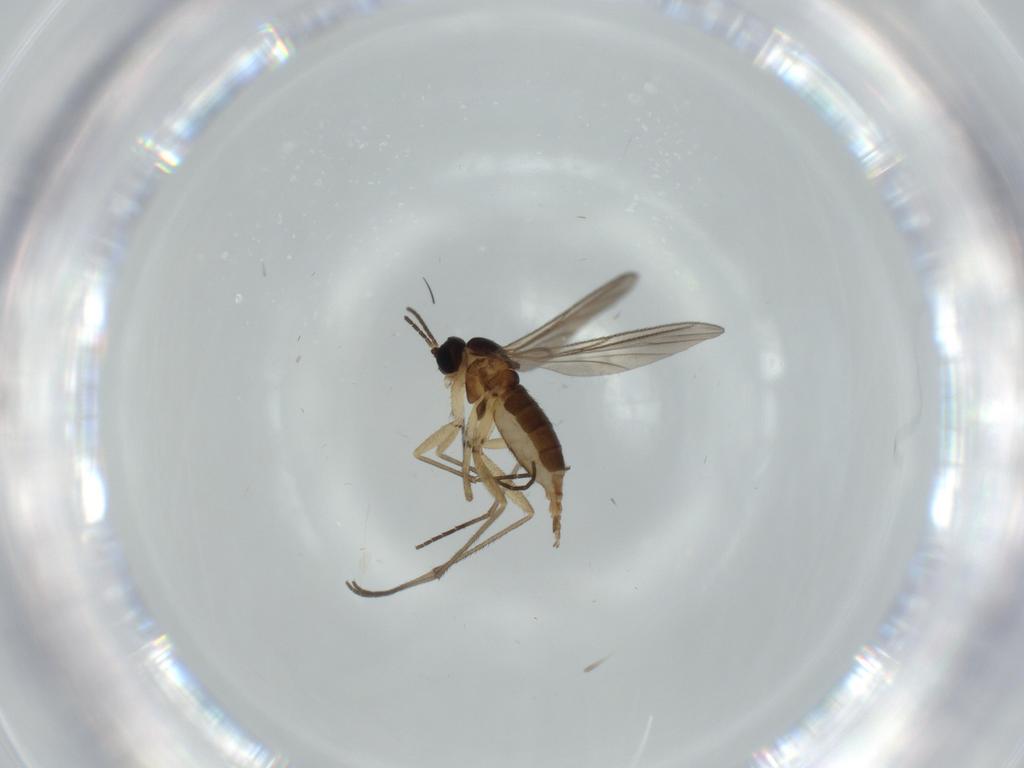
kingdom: Animalia
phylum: Arthropoda
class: Insecta
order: Diptera
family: Sciaridae
